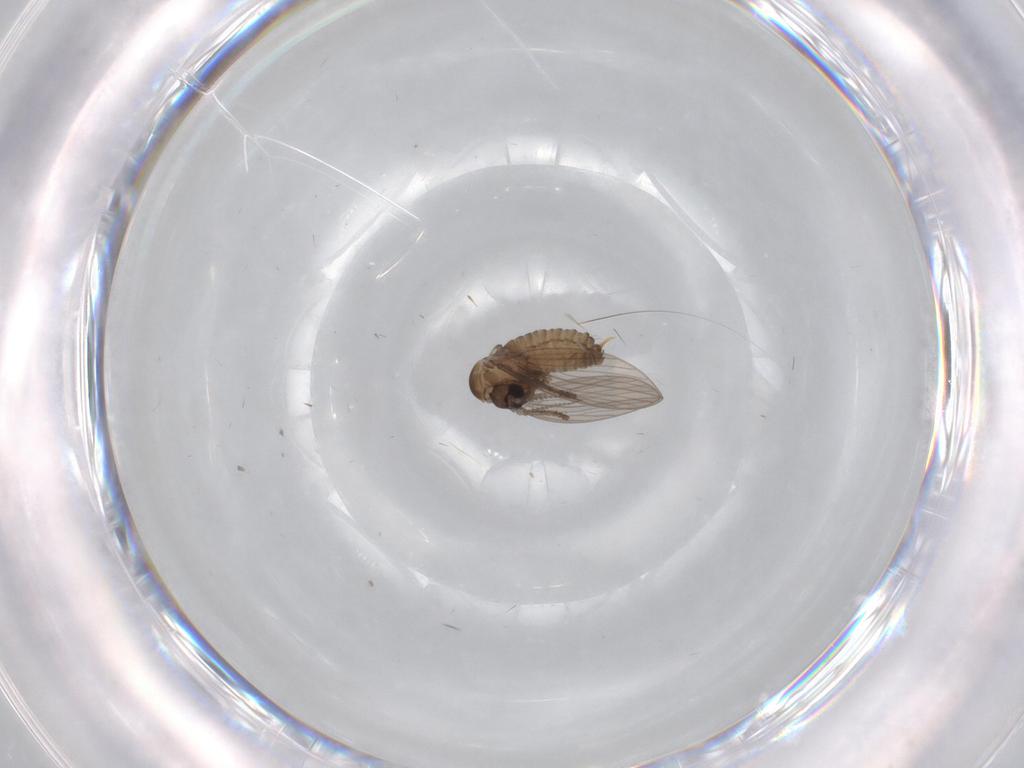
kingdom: Animalia
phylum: Arthropoda
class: Insecta
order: Diptera
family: Psychodidae
